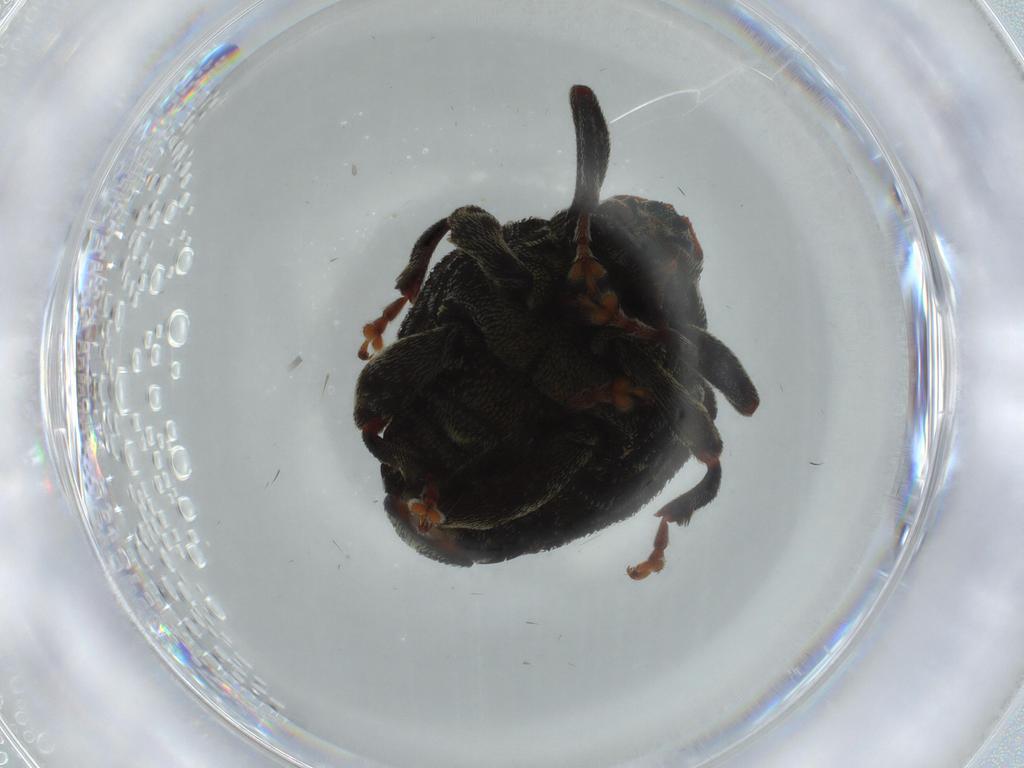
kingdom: Animalia
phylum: Arthropoda
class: Insecta
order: Coleoptera
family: Curculionidae
